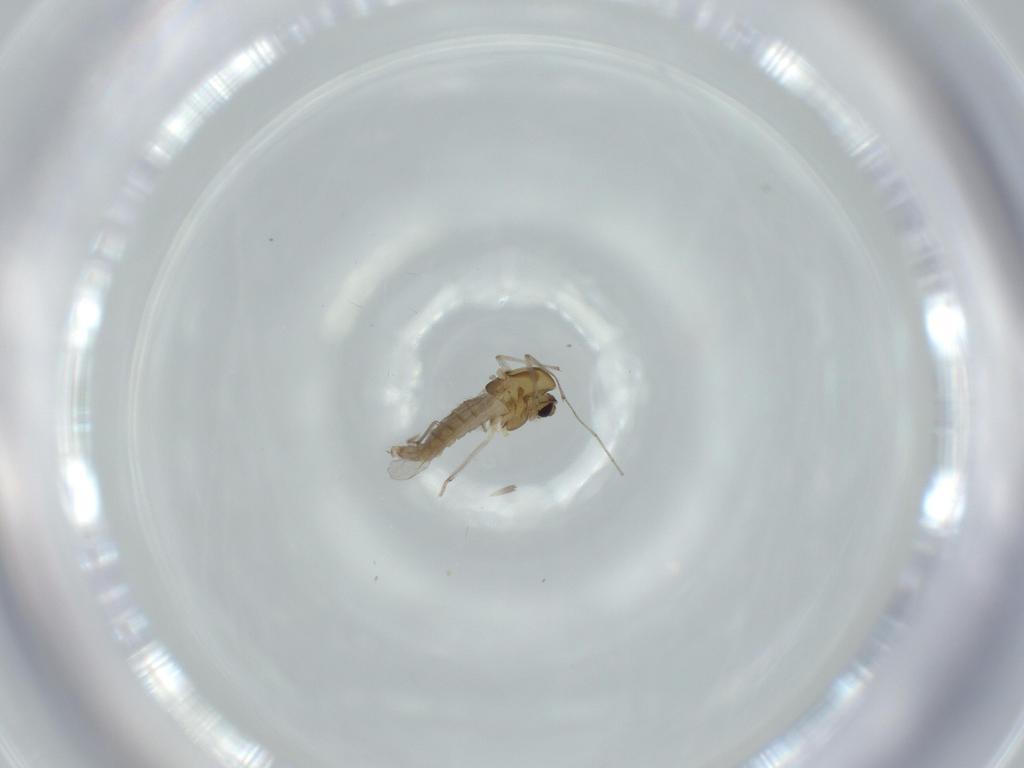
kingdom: Animalia
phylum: Arthropoda
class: Insecta
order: Diptera
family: Chironomidae
